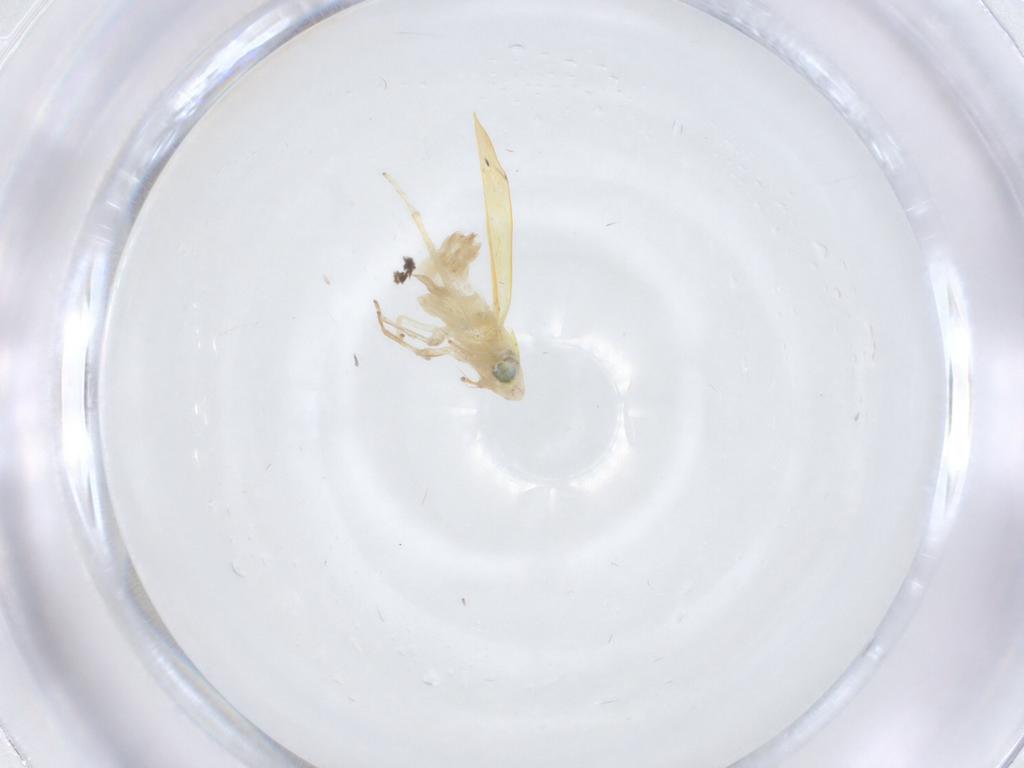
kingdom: Animalia
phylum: Arthropoda
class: Insecta
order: Hemiptera
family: Cicadellidae
